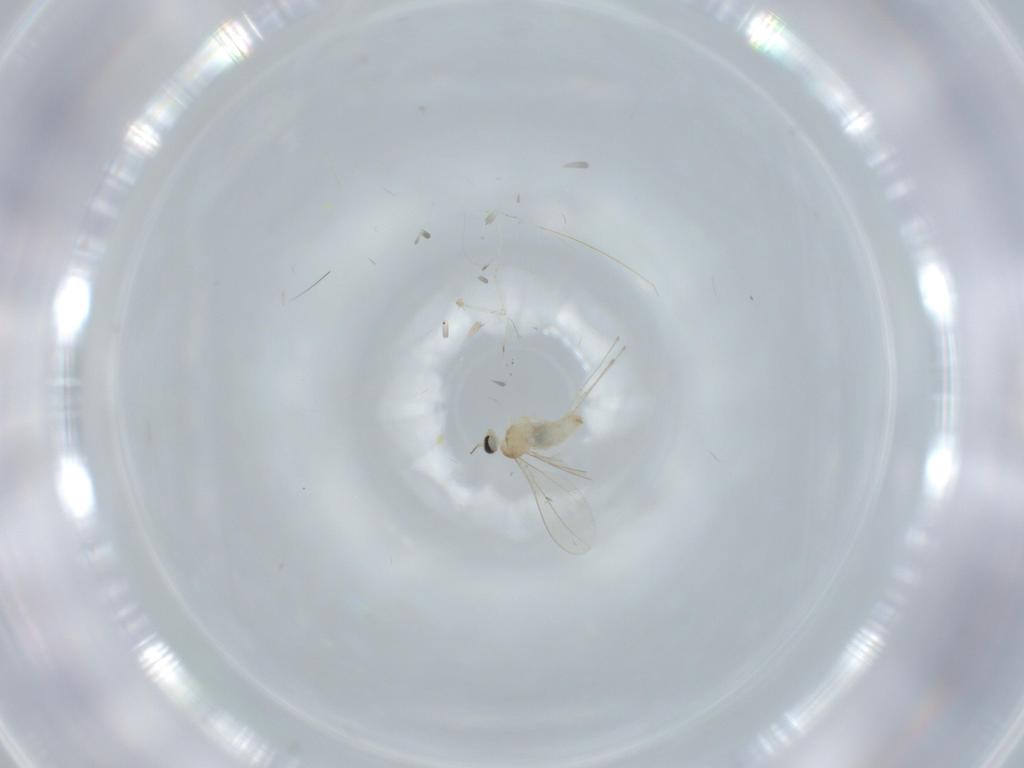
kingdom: Animalia
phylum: Arthropoda
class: Insecta
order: Diptera
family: Cecidomyiidae
